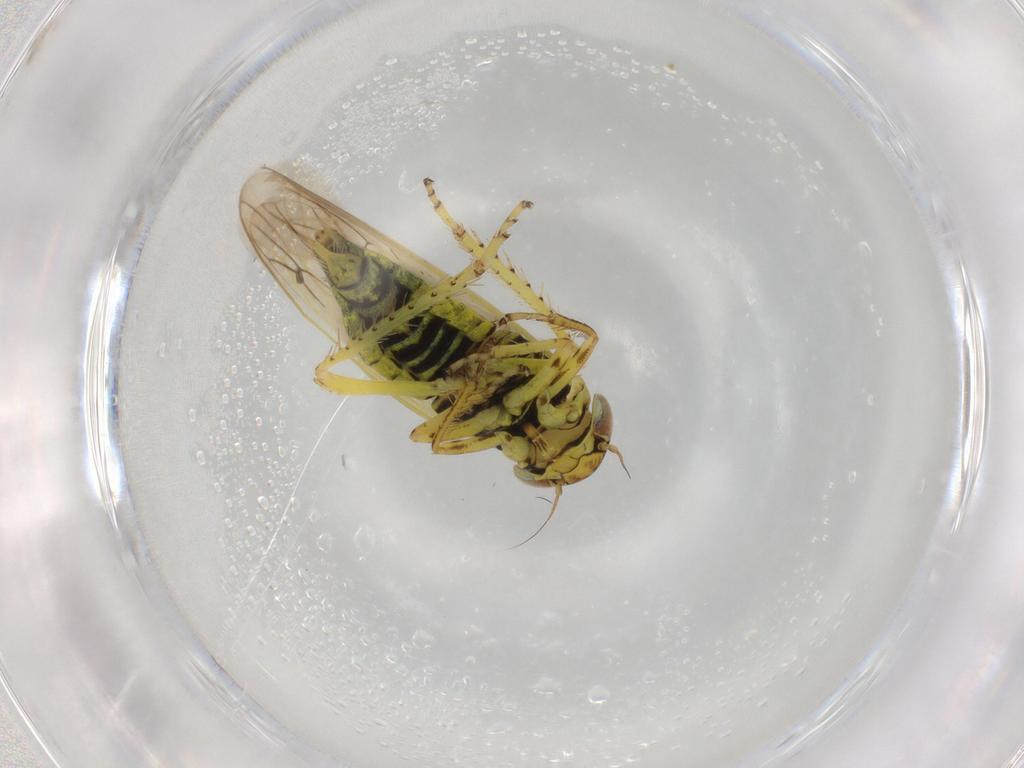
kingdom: Animalia
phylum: Arthropoda
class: Insecta
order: Hemiptera
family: Cicadellidae
